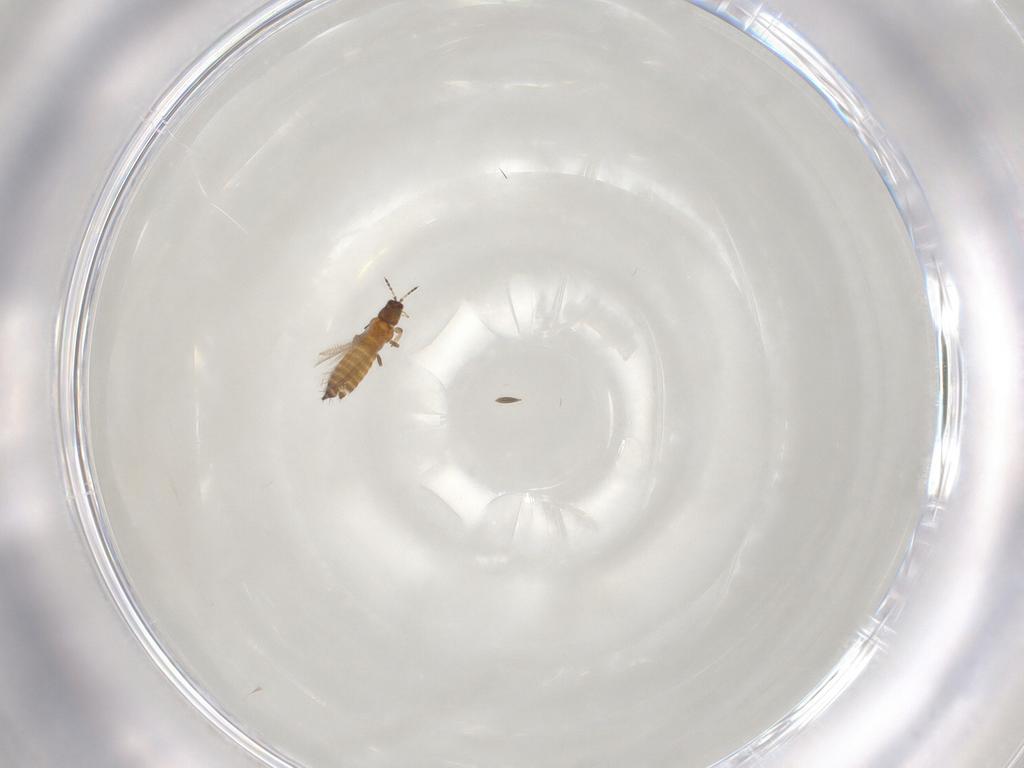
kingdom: Animalia
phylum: Arthropoda
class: Insecta
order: Thysanoptera
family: Thripidae
